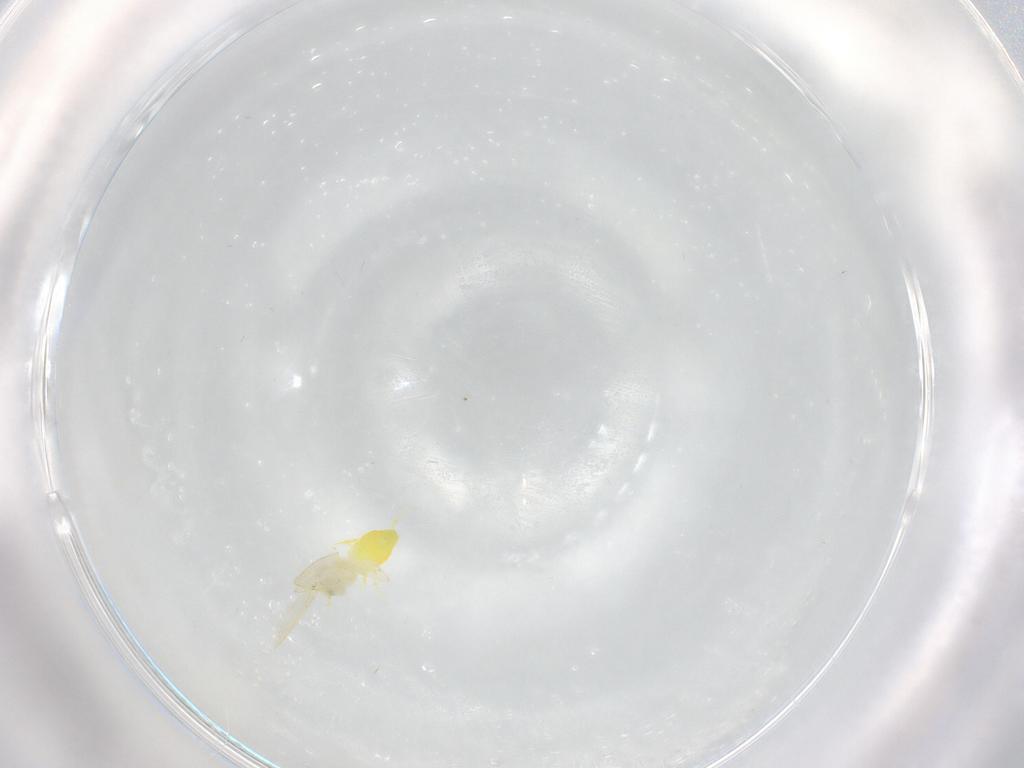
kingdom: Animalia
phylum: Arthropoda
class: Insecta
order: Hemiptera
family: Aleyrodidae
